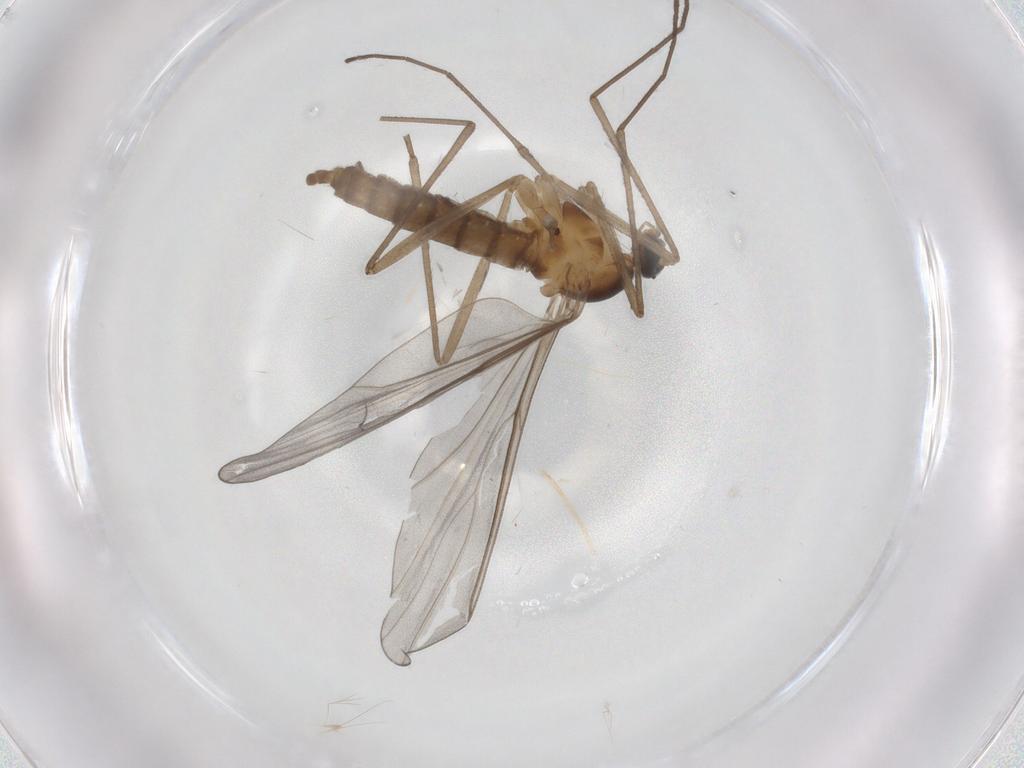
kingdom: Animalia
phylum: Arthropoda
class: Insecta
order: Diptera
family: Cecidomyiidae
